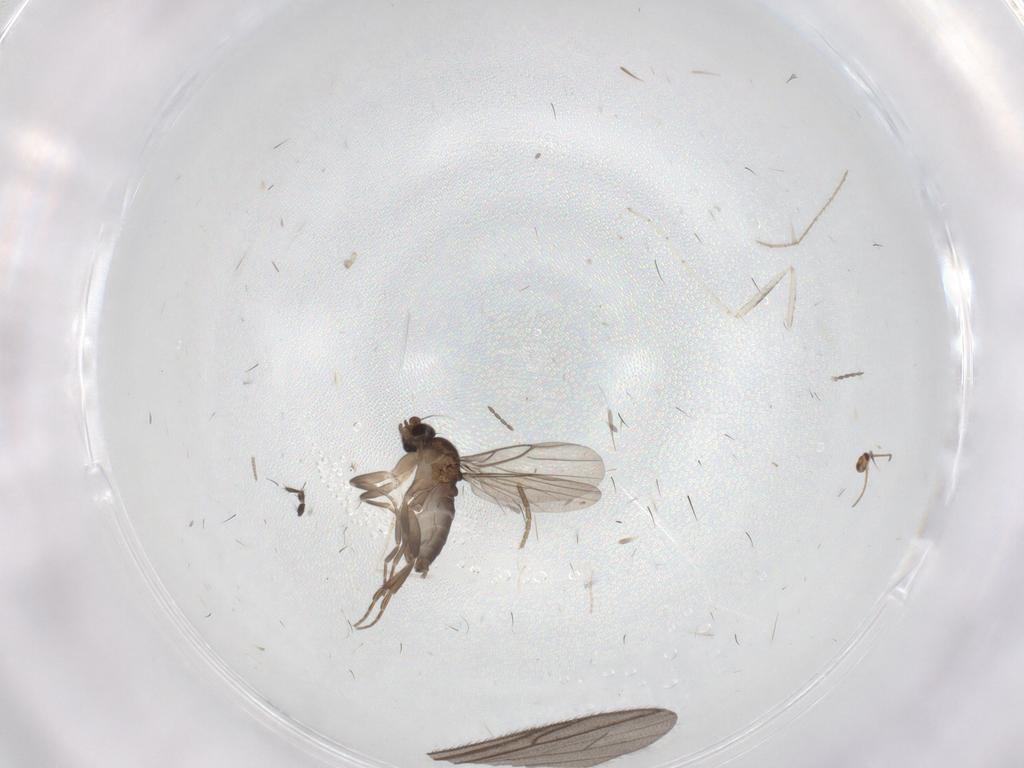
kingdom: Animalia
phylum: Arthropoda
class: Insecta
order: Diptera
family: Cecidomyiidae
